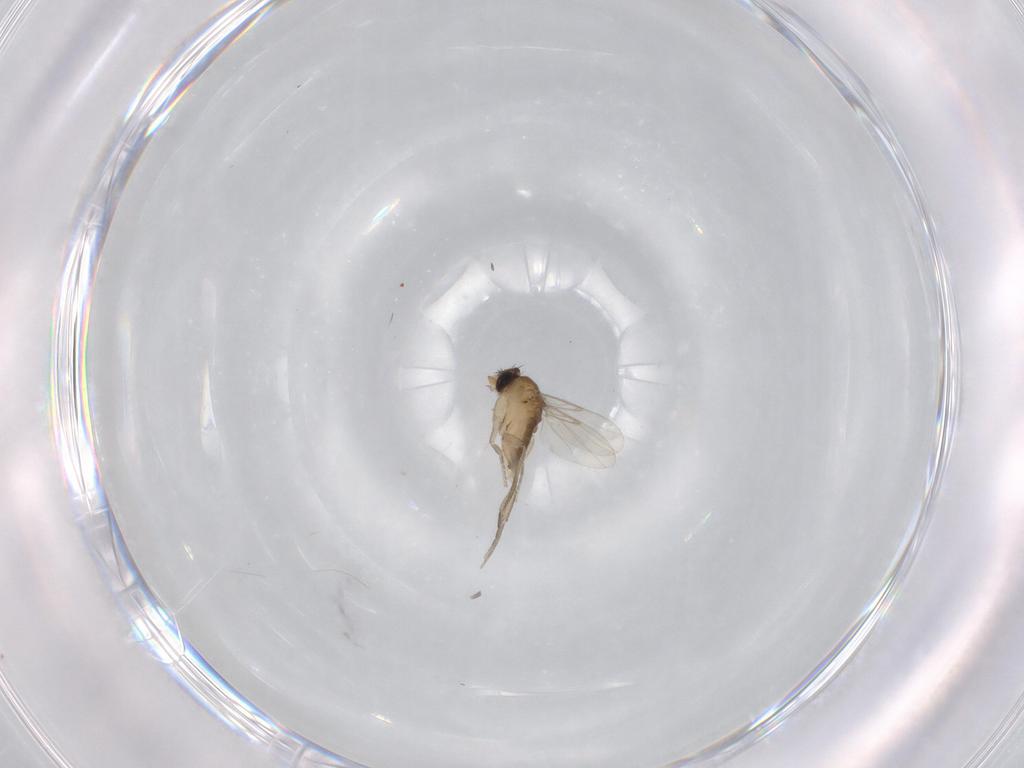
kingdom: Animalia
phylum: Arthropoda
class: Insecta
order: Diptera
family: Phoridae
